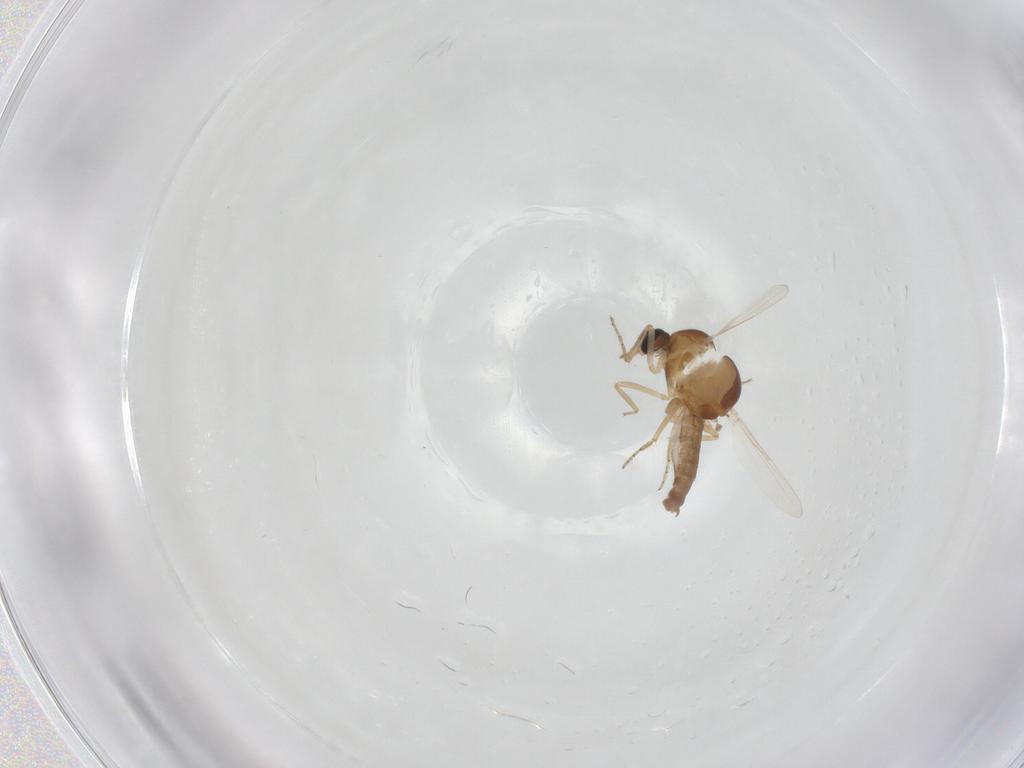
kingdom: Animalia
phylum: Arthropoda
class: Insecta
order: Diptera
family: Ceratopogonidae
